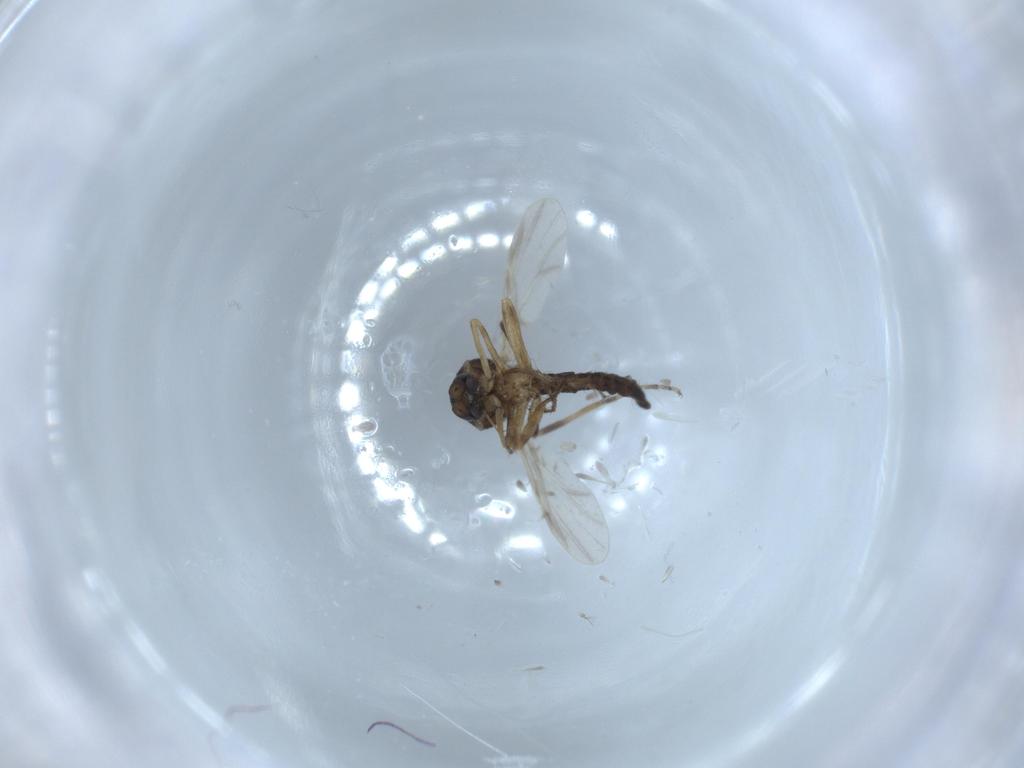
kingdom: Animalia
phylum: Arthropoda
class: Insecta
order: Diptera
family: Ceratopogonidae
